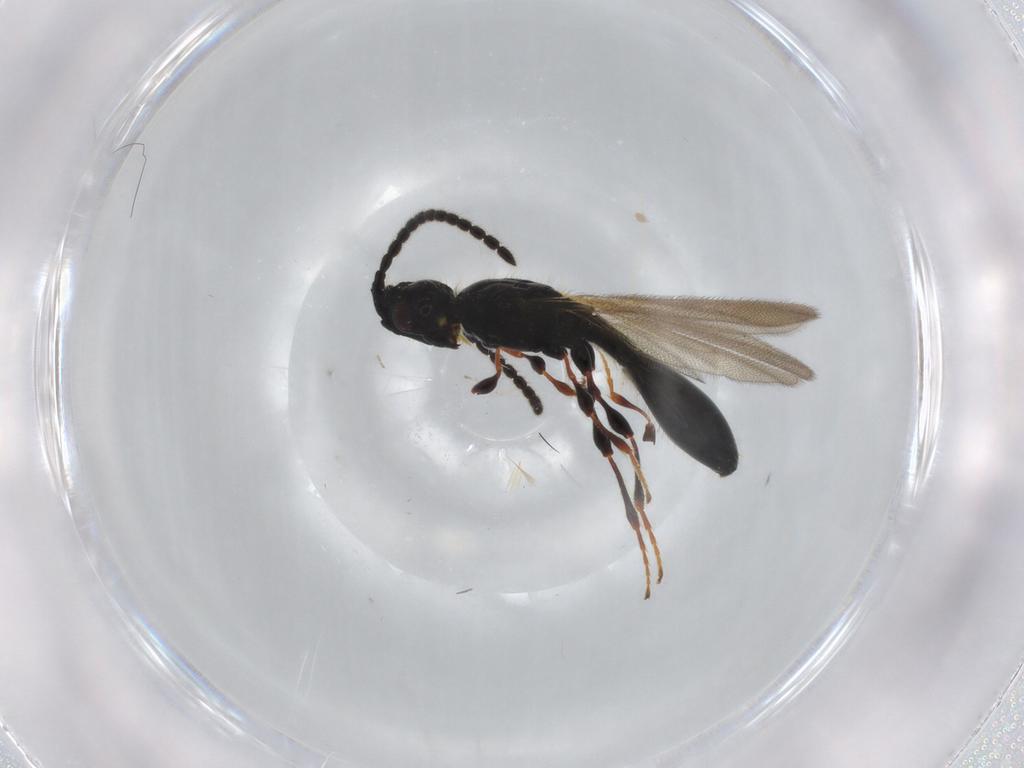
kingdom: Animalia
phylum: Arthropoda
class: Insecta
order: Hymenoptera
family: Diapriidae
